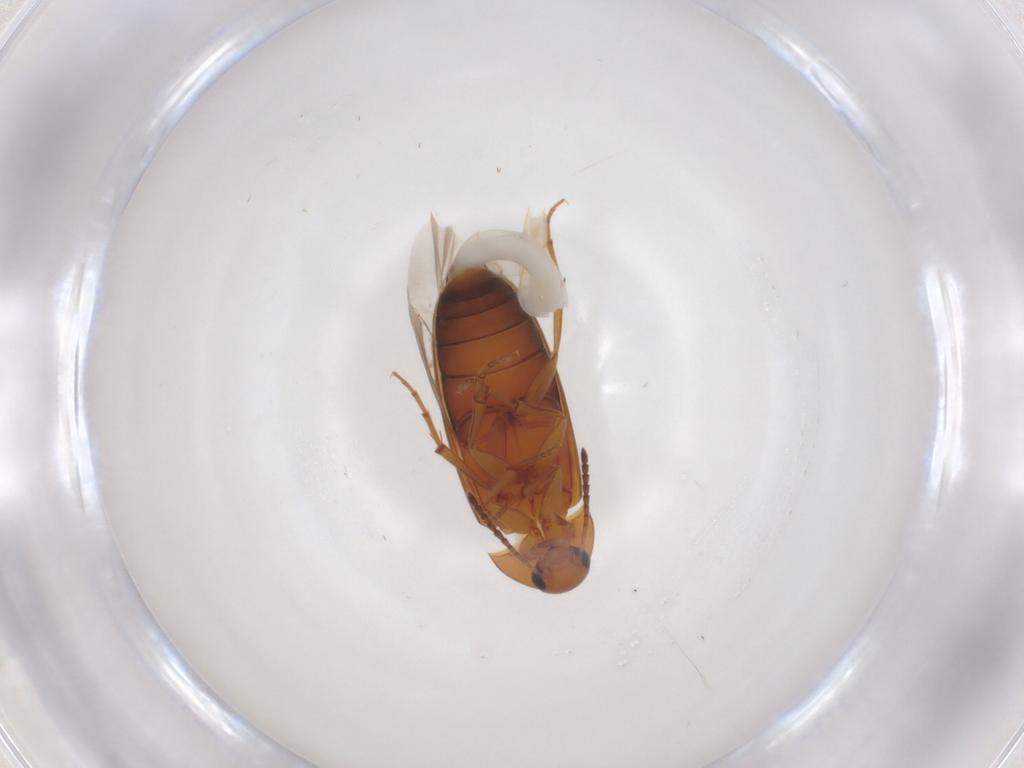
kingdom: Animalia
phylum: Arthropoda
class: Insecta
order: Coleoptera
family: Scraptiidae
